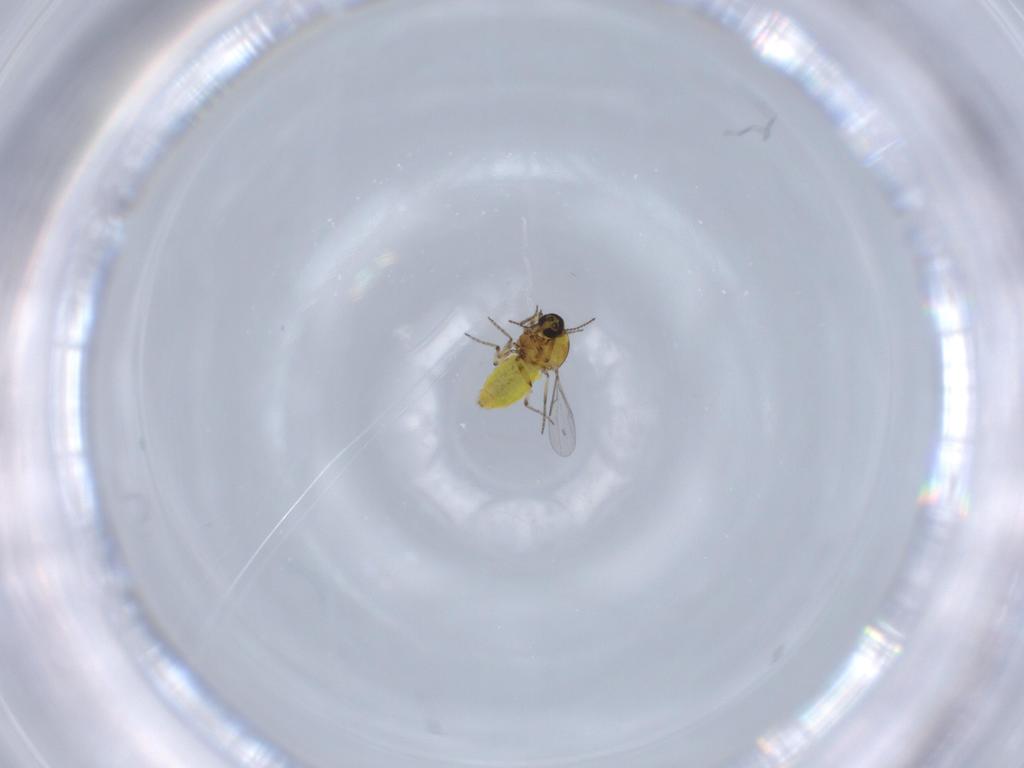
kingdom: Animalia
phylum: Arthropoda
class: Insecta
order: Diptera
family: Ceratopogonidae
